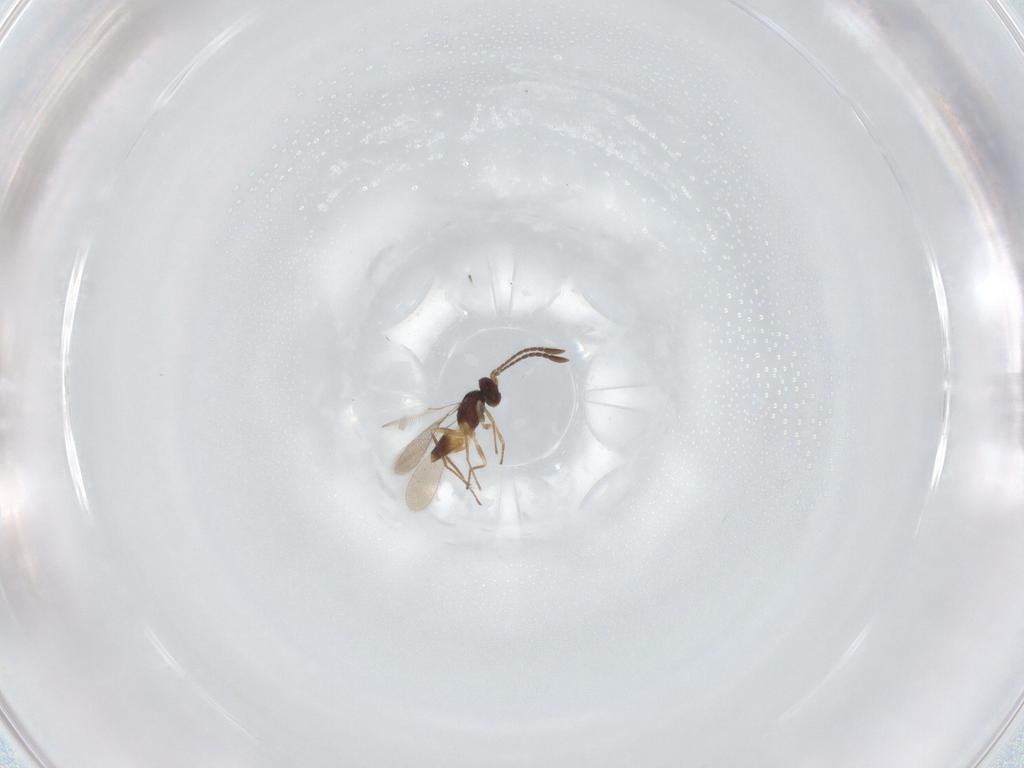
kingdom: Animalia
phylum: Arthropoda
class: Insecta
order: Hymenoptera
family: Mymaridae
